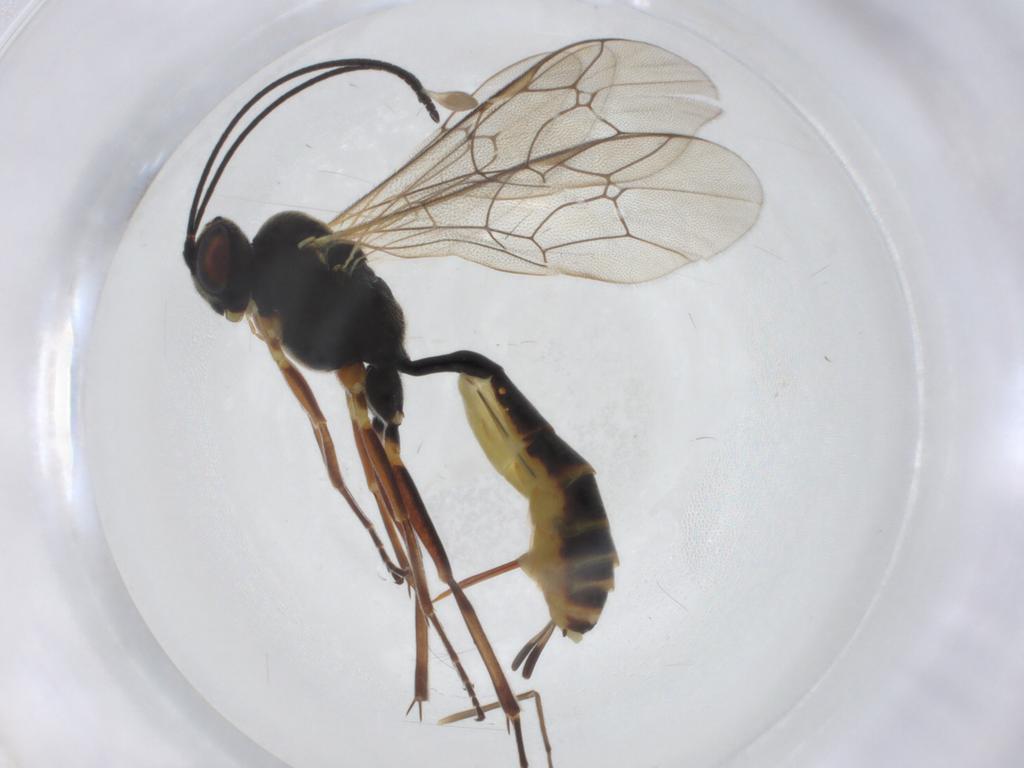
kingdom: Animalia
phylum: Arthropoda
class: Insecta
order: Hymenoptera
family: Ichneumonidae
